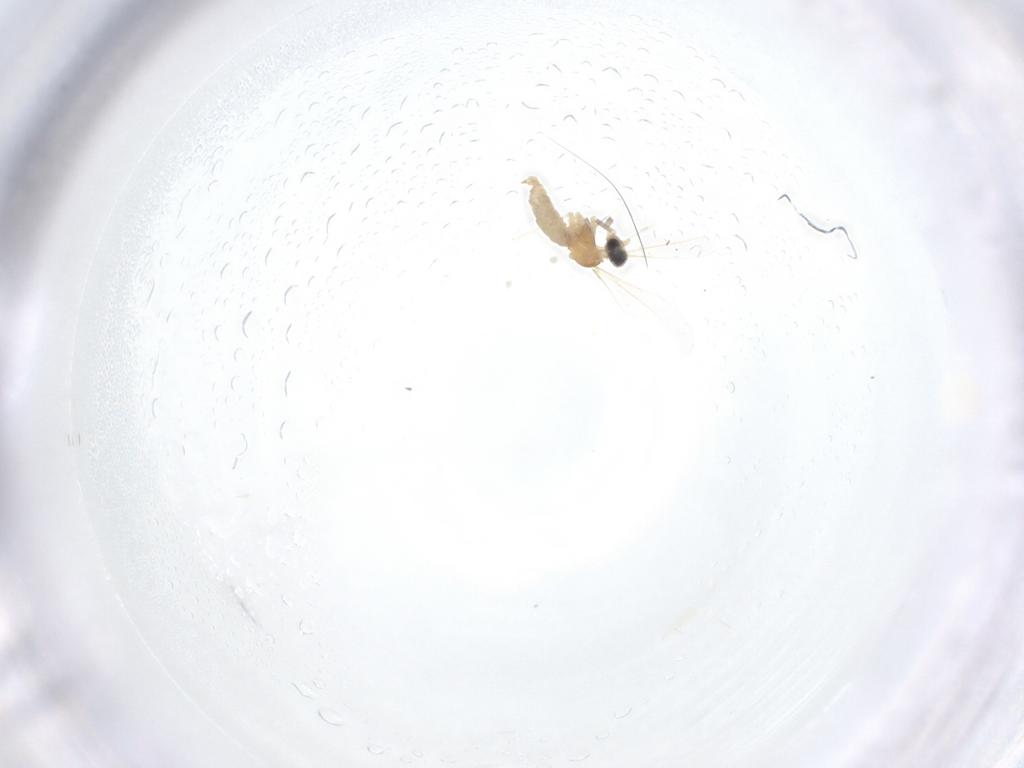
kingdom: Animalia
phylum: Arthropoda
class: Insecta
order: Diptera
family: Cecidomyiidae
